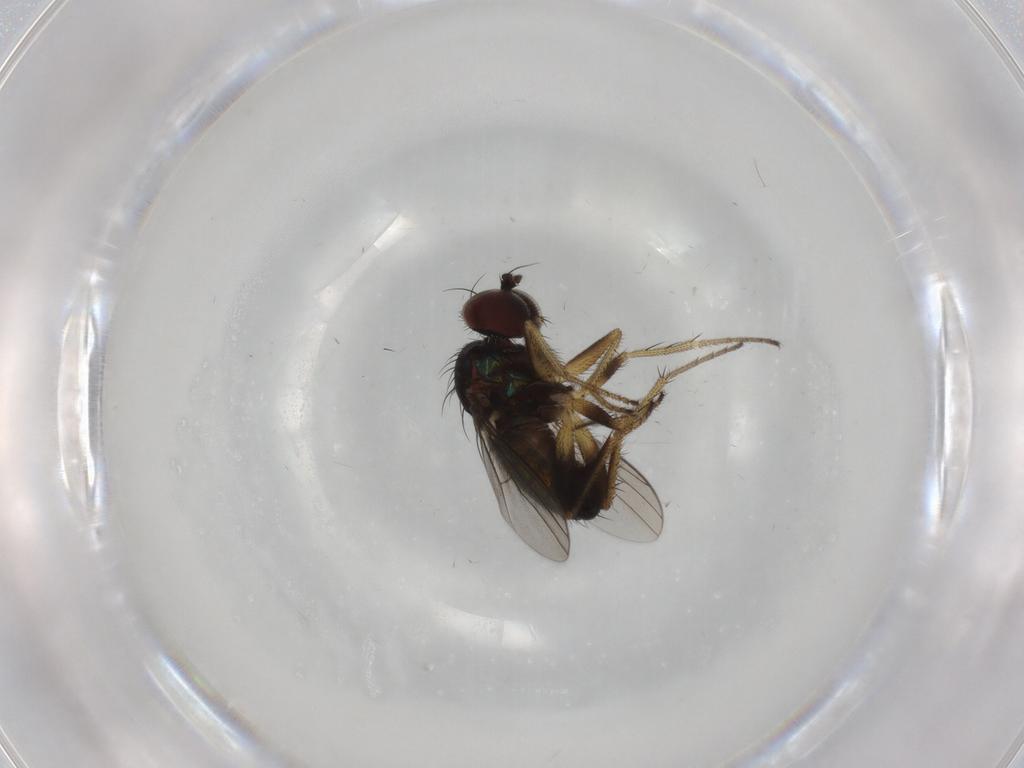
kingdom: Animalia
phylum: Arthropoda
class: Insecta
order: Diptera
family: Dolichopodidae
